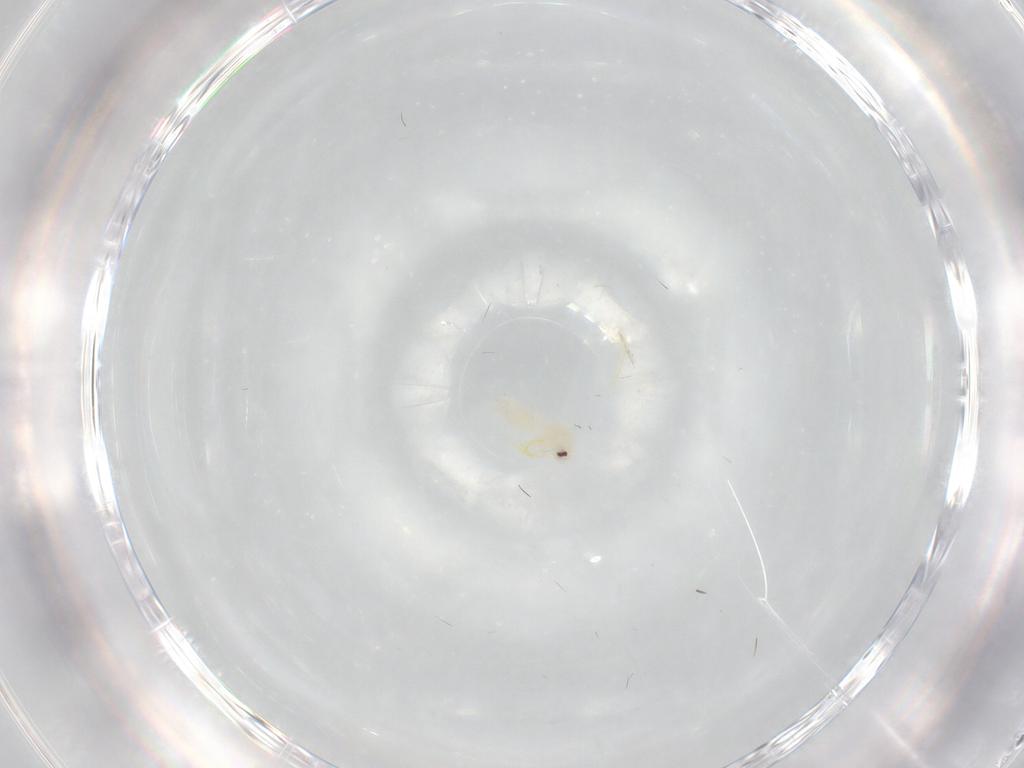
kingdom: Animalia
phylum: Arthropoda
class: Insecta
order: Hemiptera
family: Aleyrodidae
